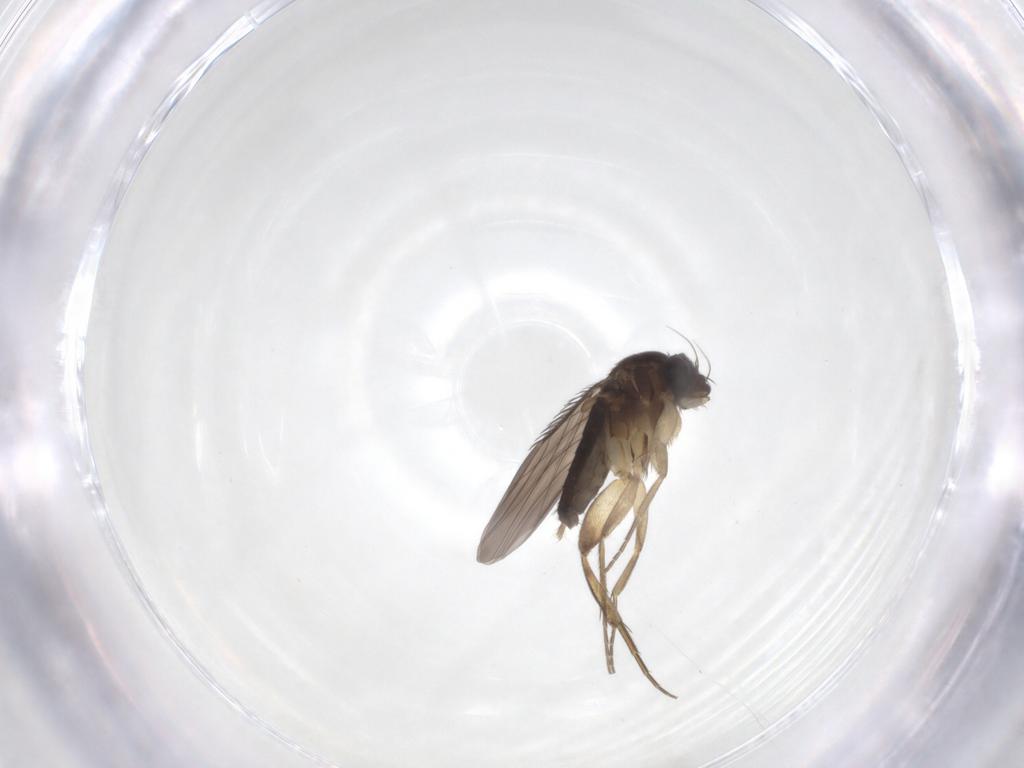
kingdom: Animalia
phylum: Arthropoda
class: Insecta
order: Diptera
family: Phoridae
